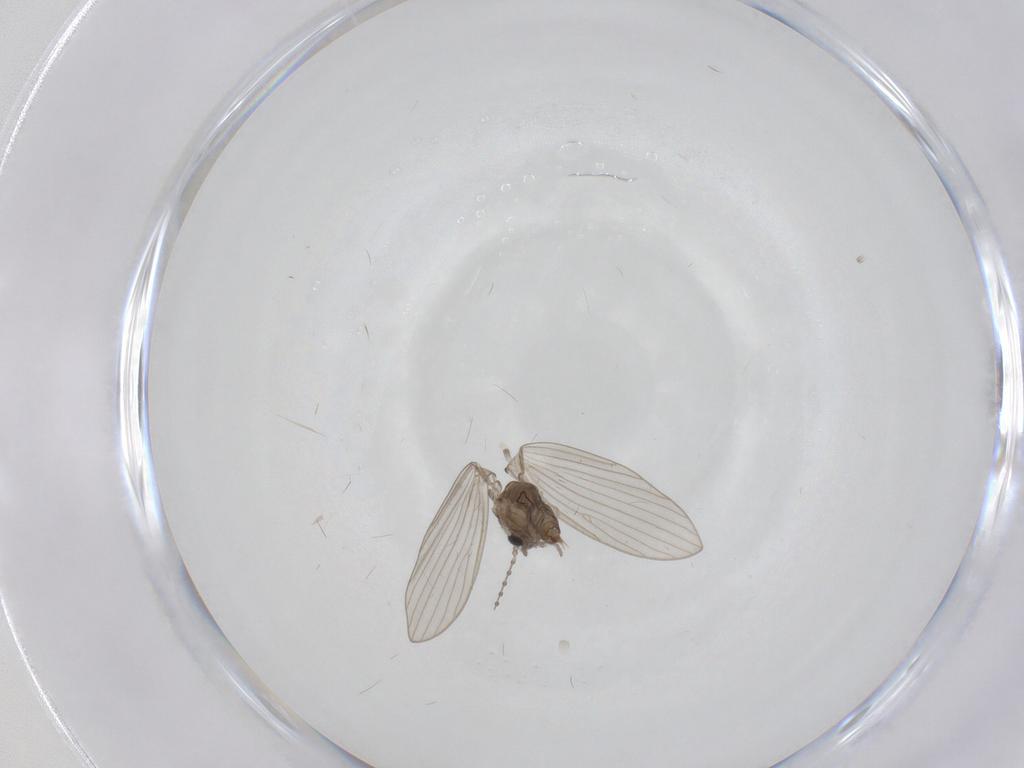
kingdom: Animalia
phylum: Arthropoda
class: Insecta
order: Diptera
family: Psychodidae
